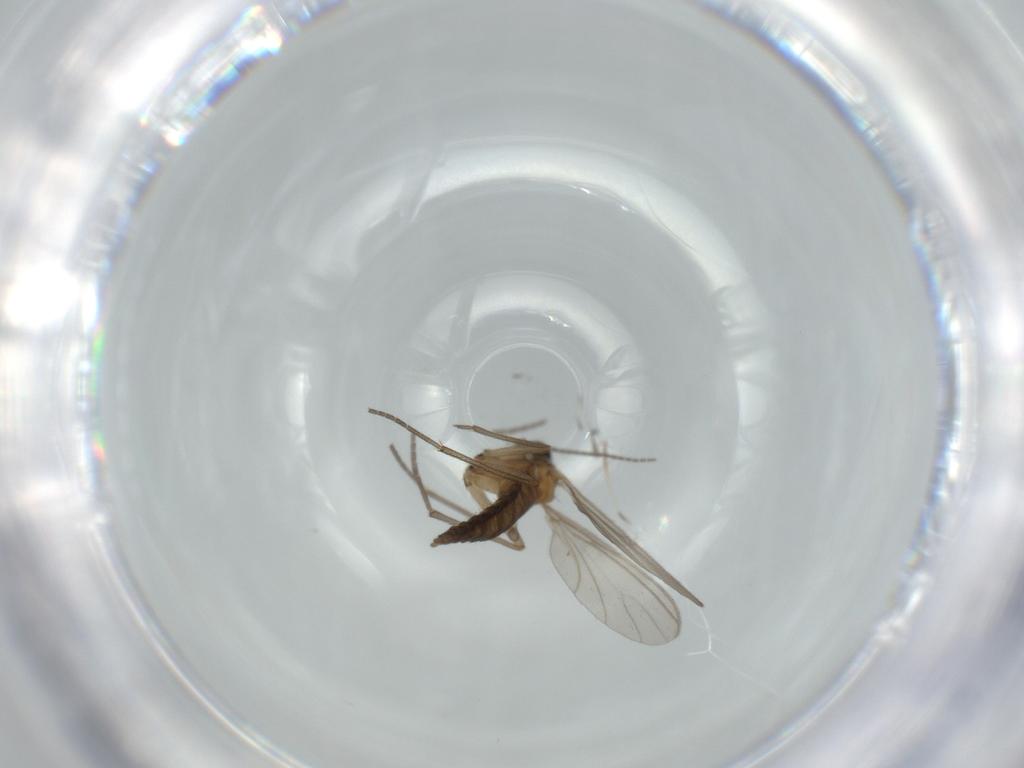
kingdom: Animalia
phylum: Arthropoda
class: Insecta
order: Diptera
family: Sciaridae
